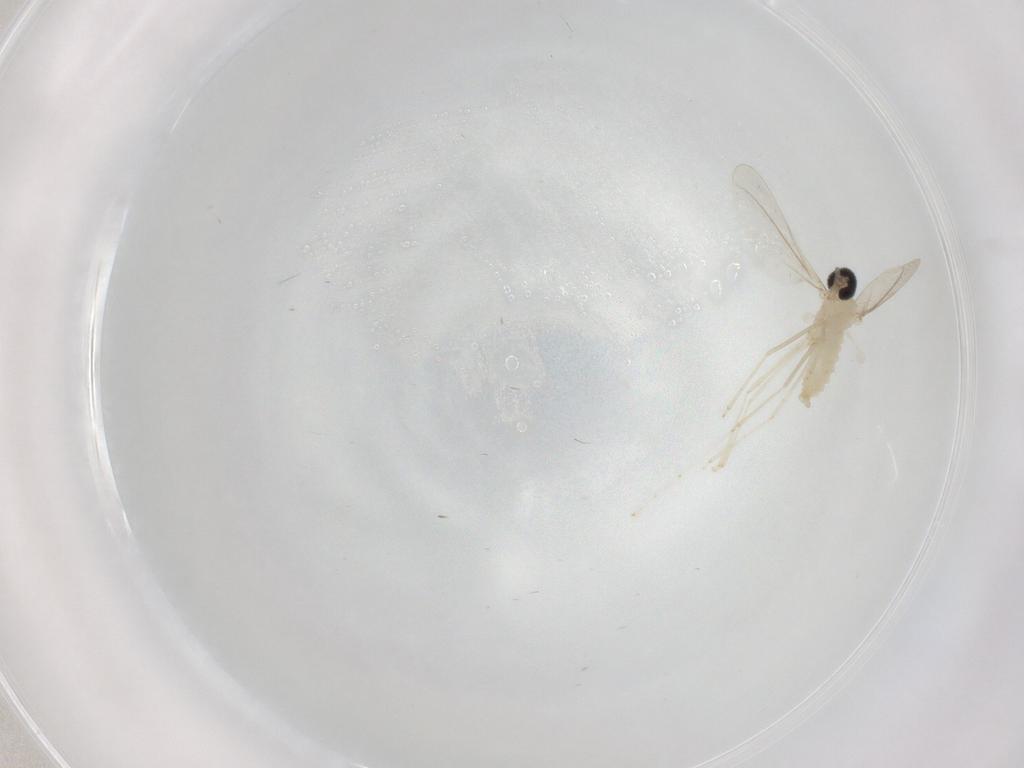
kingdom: Animalia
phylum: Arthropoda
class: Insecta
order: Diptera
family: Cecidomyiidae
